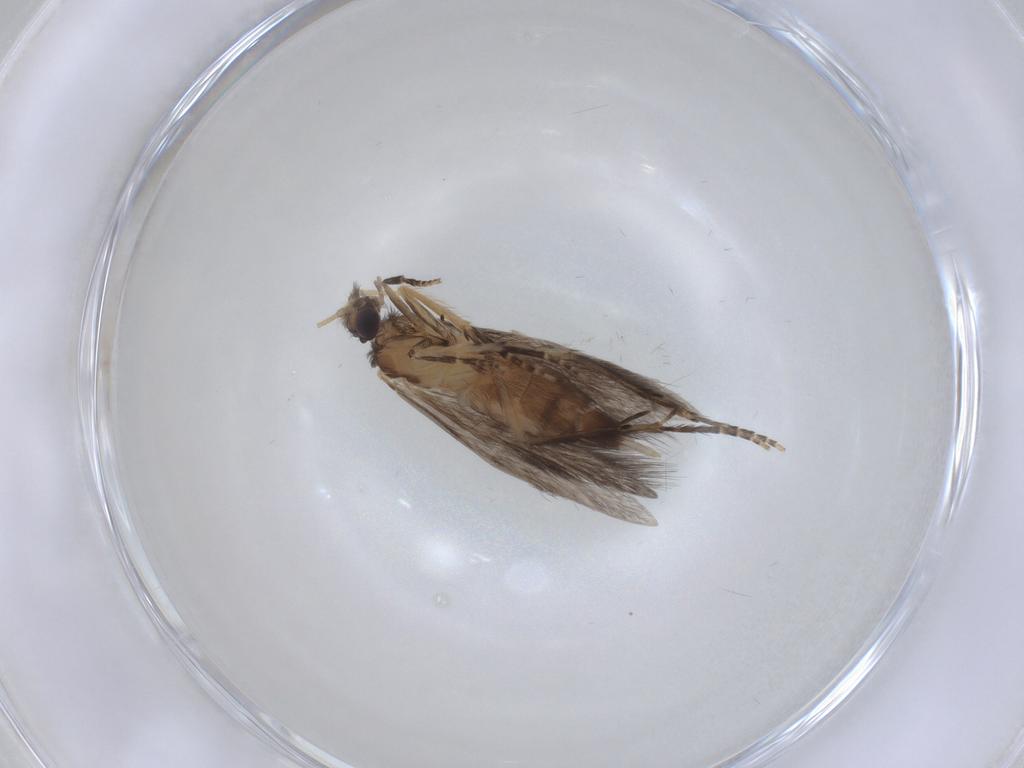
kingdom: Animalia
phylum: Arthropoda
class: Insecta
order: Trichoptera
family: Hydroptilidae
